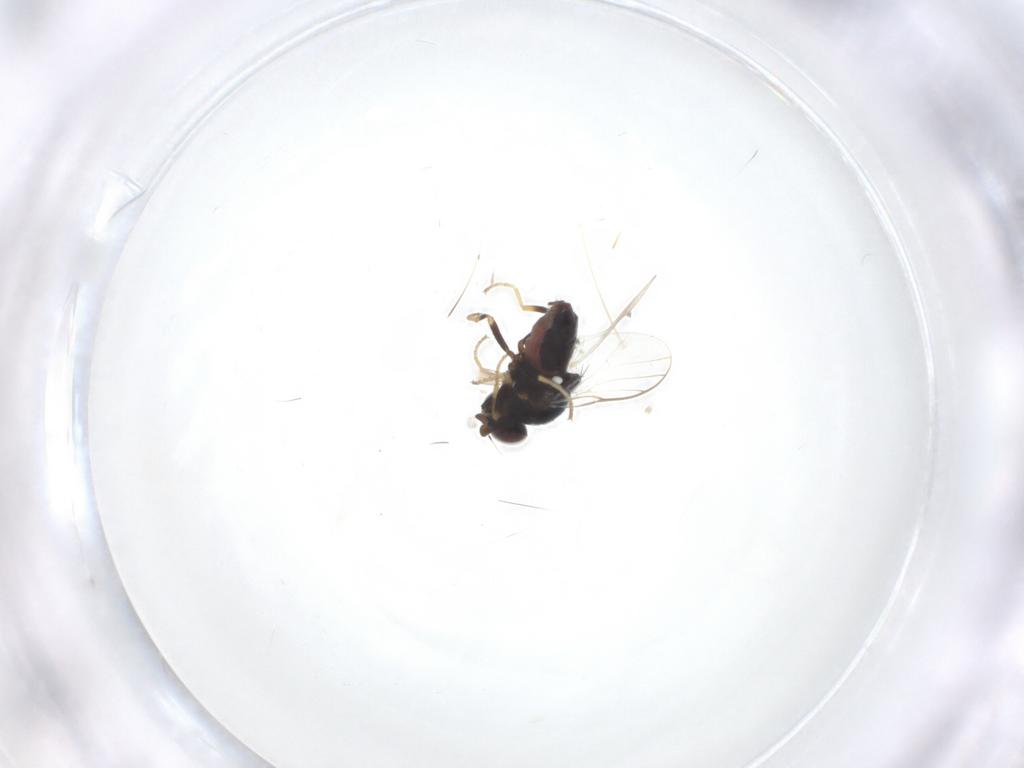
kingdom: Animalia
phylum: Arthropoda
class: Insecta
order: Diptera
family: Chloropidae
